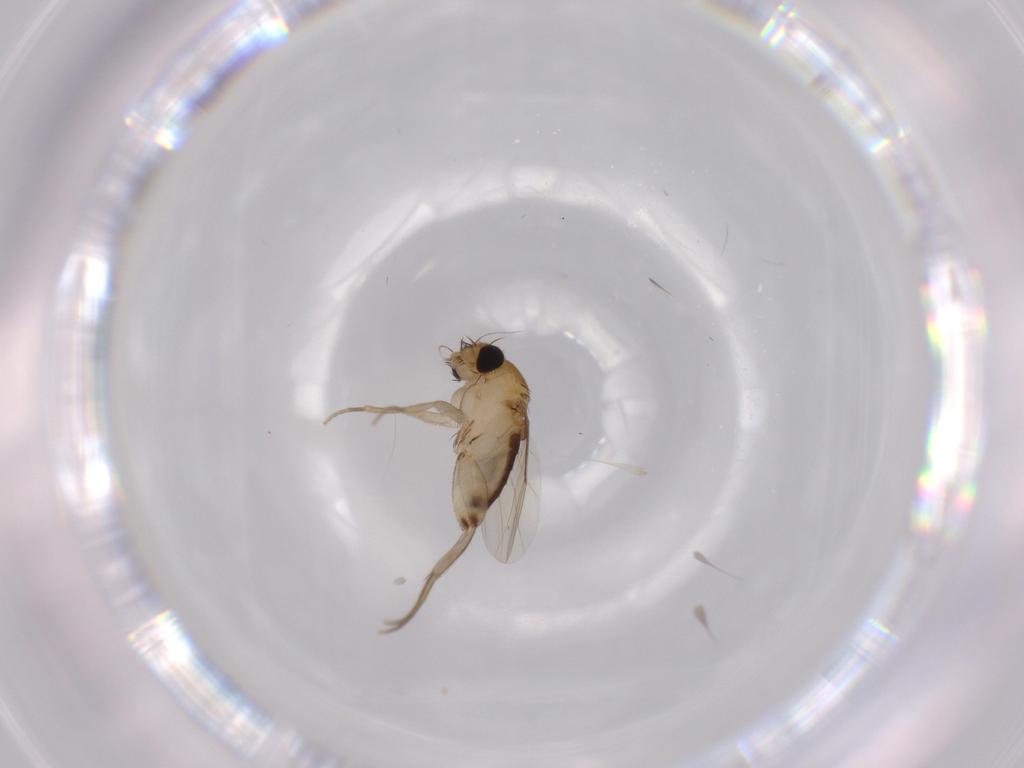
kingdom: Animalia
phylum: Arthropoda
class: Insecta
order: Diptera
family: Phoridae
